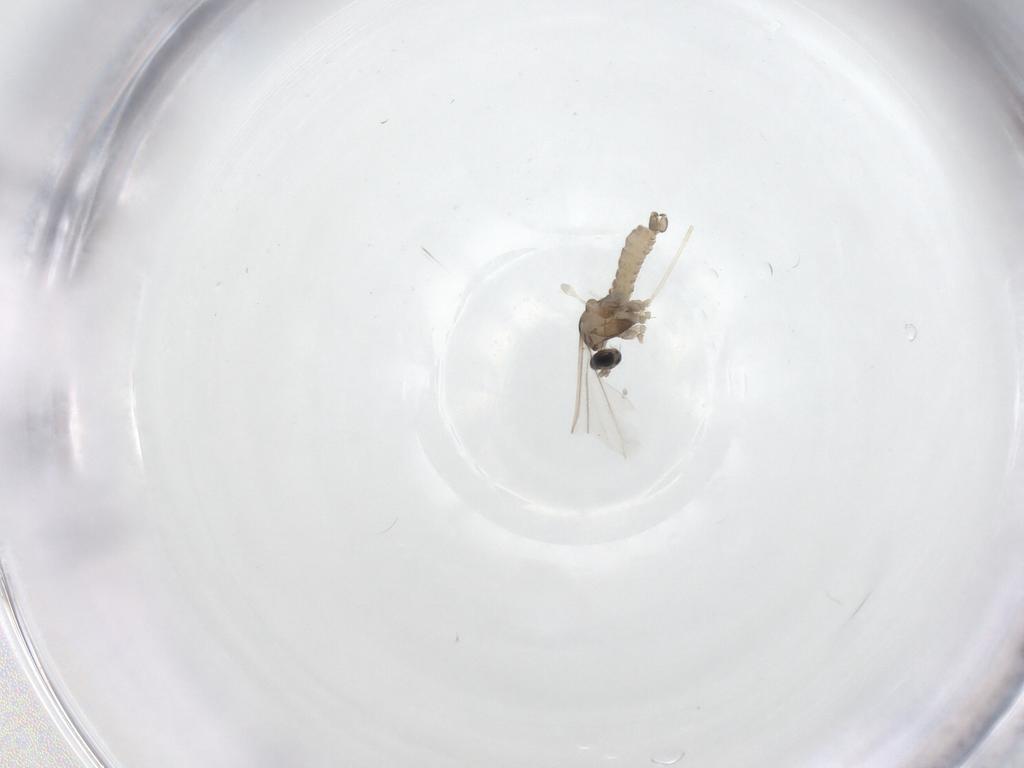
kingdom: Animalia
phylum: Arthropoda
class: Insecta
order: Diptera
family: Cecidomyiidae
